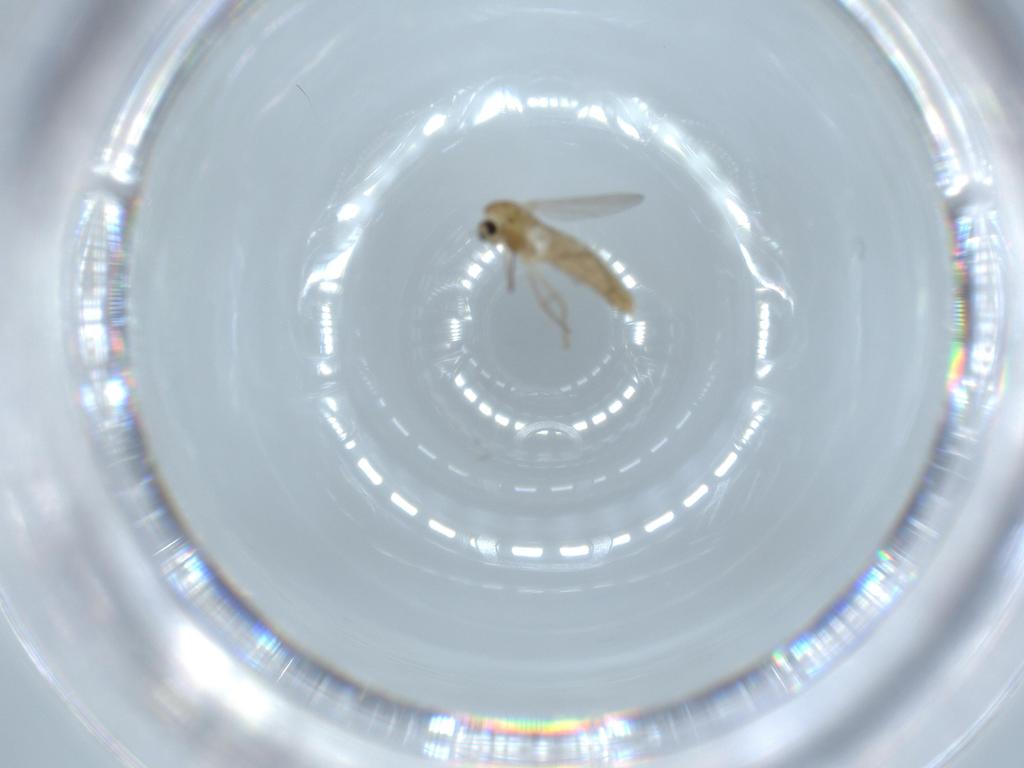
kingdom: Animalia
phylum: Arthropoda
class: Insecta
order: Diptera
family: Chironomidae
